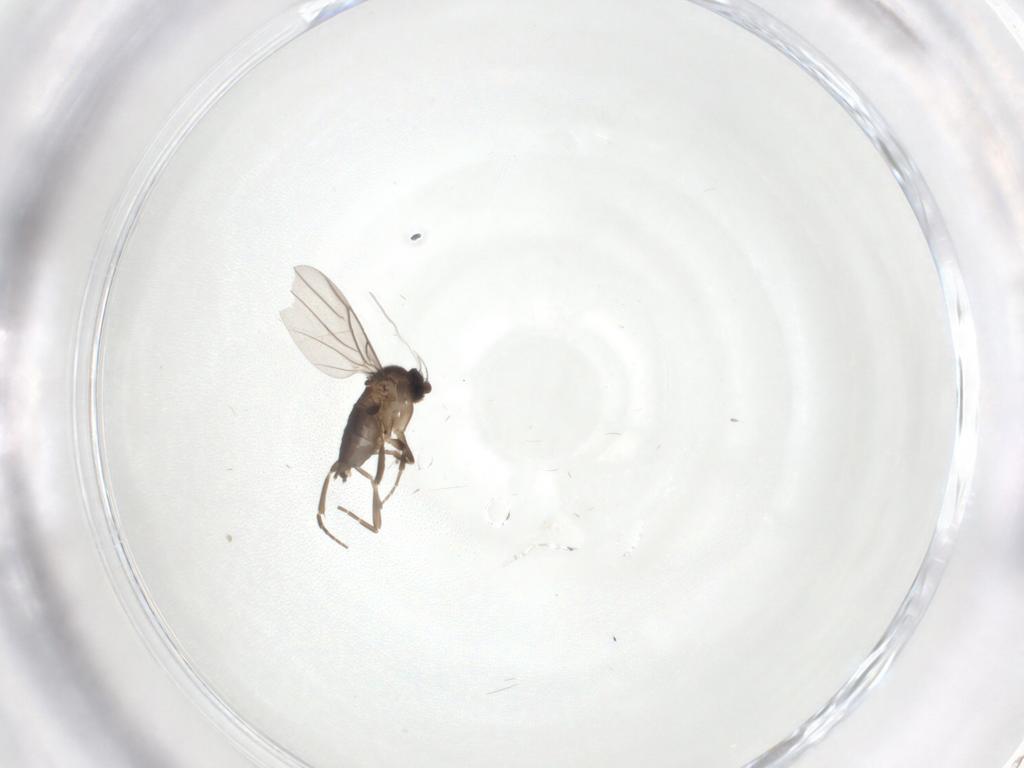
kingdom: Animalia
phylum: Arthropoda
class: Insecta
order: Diptera
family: Phoridae
